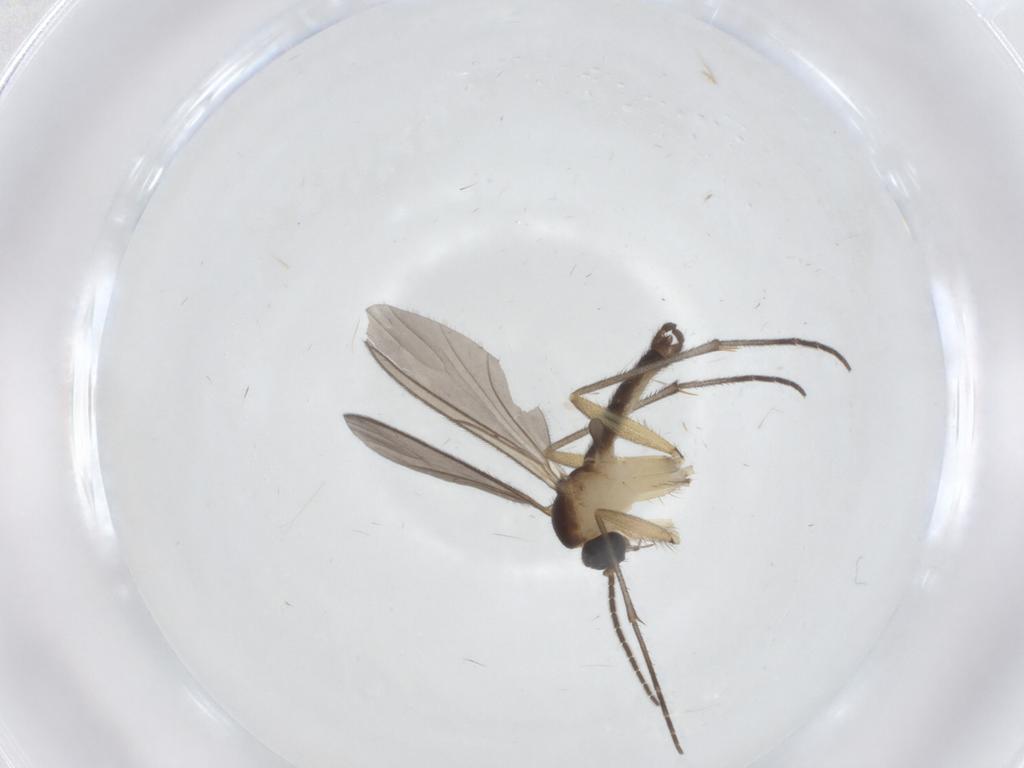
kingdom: Animalia
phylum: Arthropoda
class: Insecta
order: Diptera
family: Sciaridae
